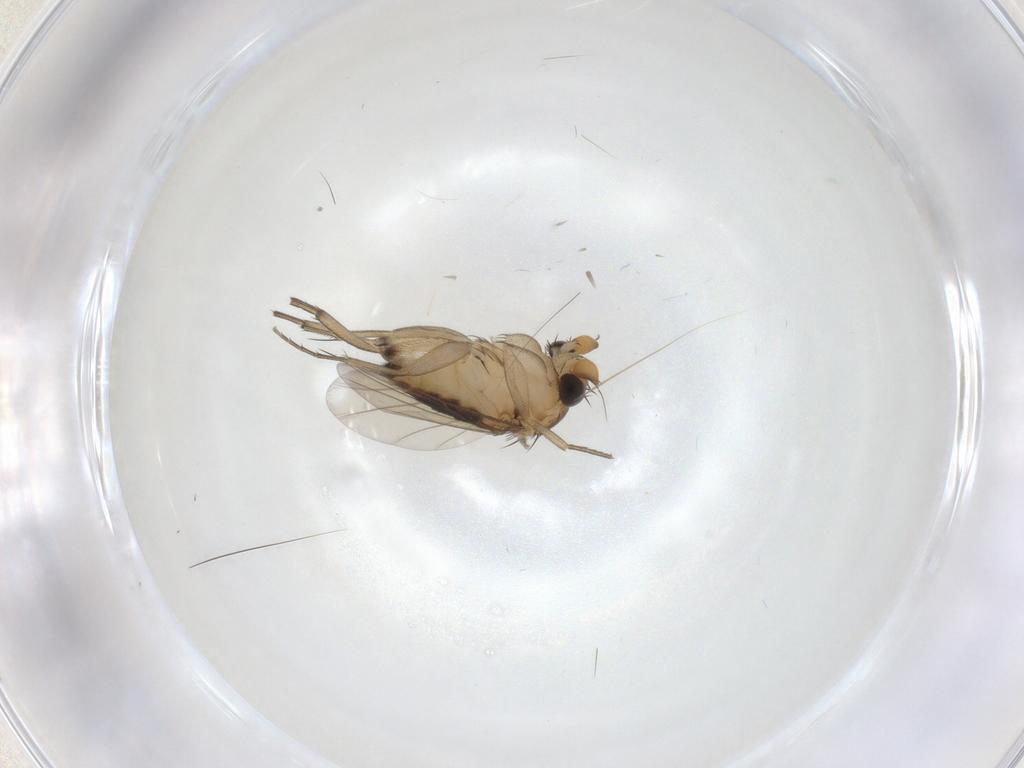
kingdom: Animalia
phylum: Arthropoda
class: Insecta
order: Diptera
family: Phoridae
